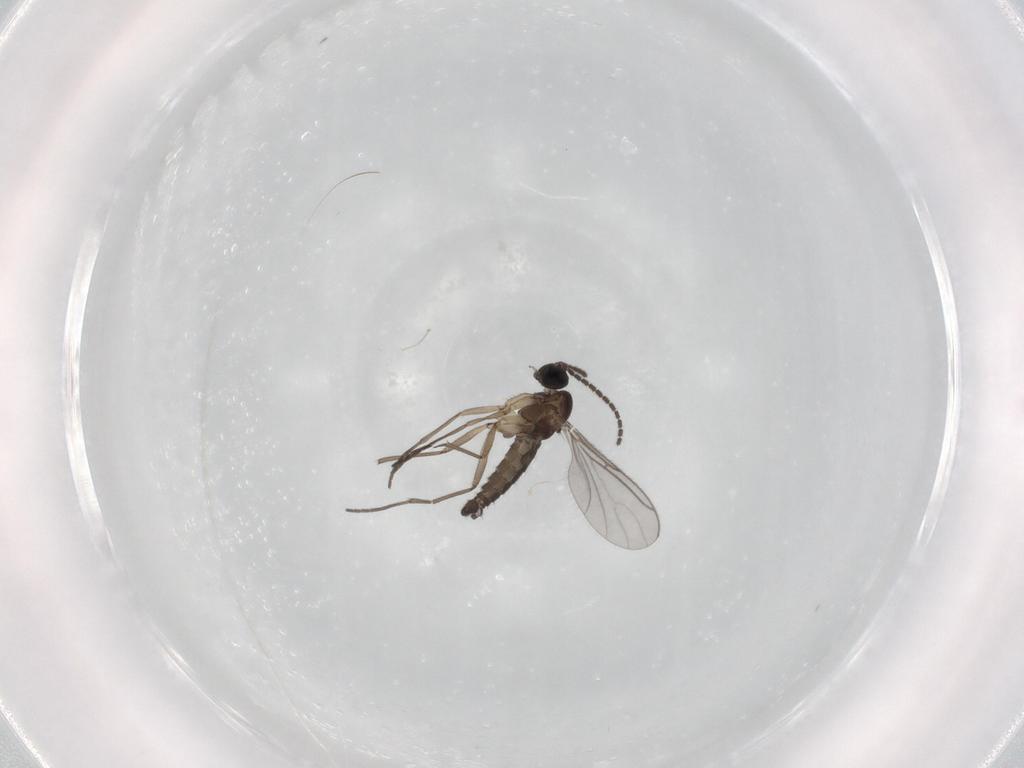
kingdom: Animalia
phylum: Arthropoda
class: Insecta
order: Diptera
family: Sciaridae
